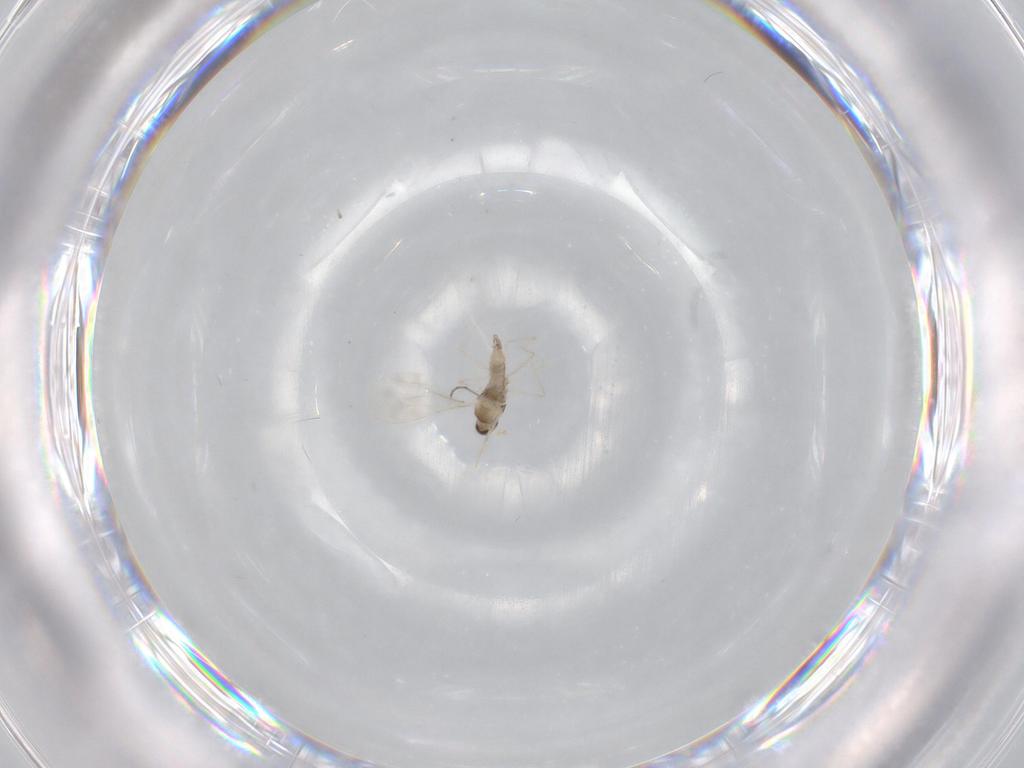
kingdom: Animalia
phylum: Arthropoda
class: Insecta
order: Diptera
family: Cecidomyiidae
